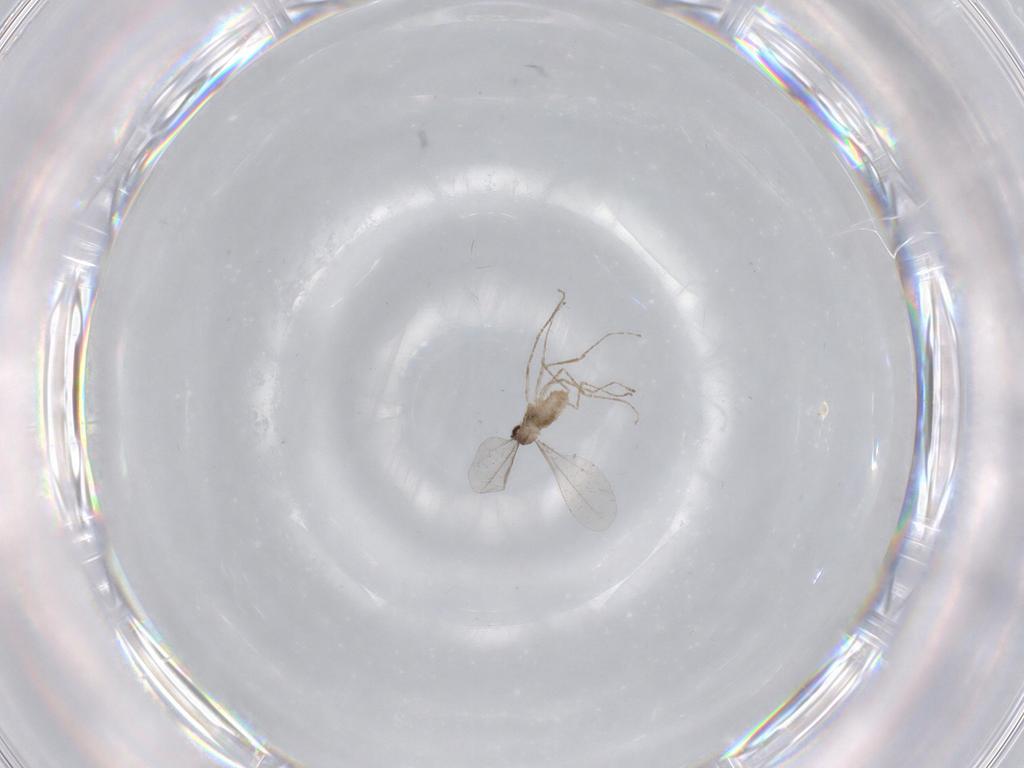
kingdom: Animalia
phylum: Arthropoda
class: Insecta
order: Diptera
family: Cecidomyiidae
